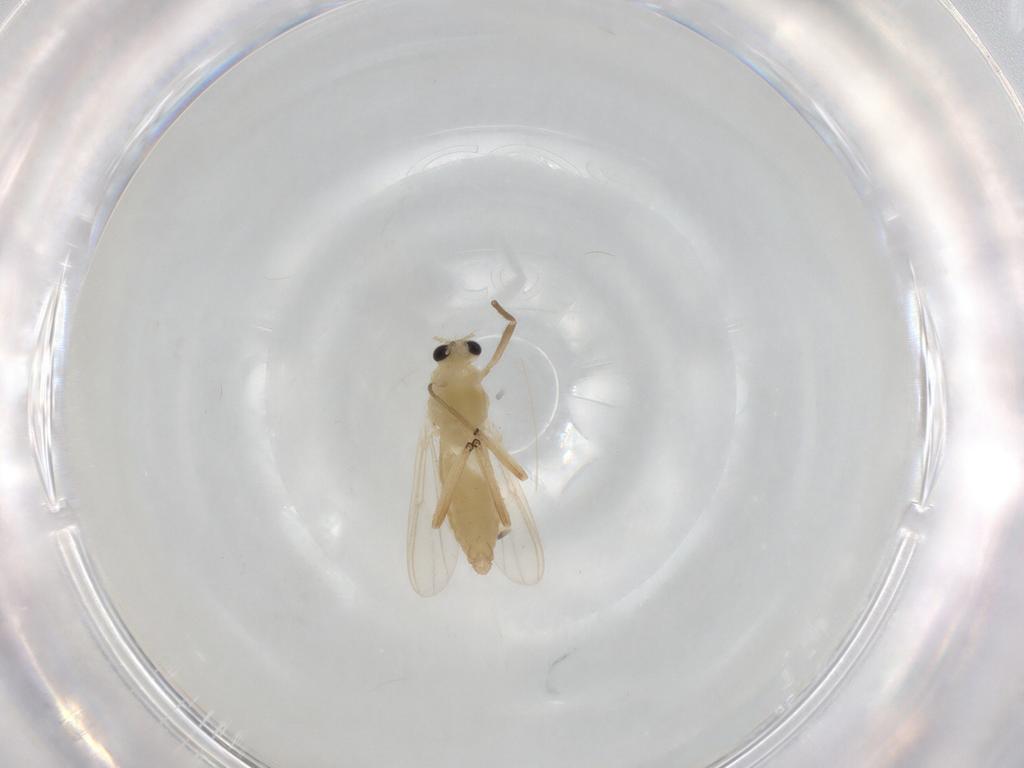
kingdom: Animalia
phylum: Arthropoda
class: Insecta
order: Diptera
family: Chironomidae
